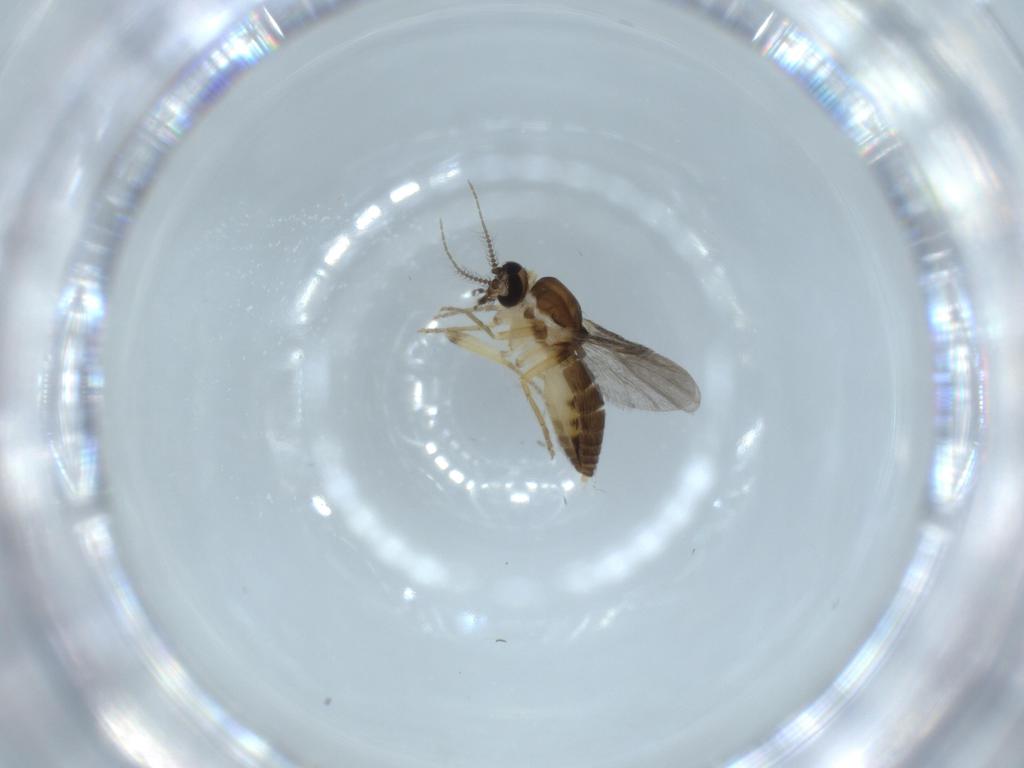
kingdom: Animalia
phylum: Arthropoda
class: Insecta
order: Diptera
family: Ceratopogonidae
